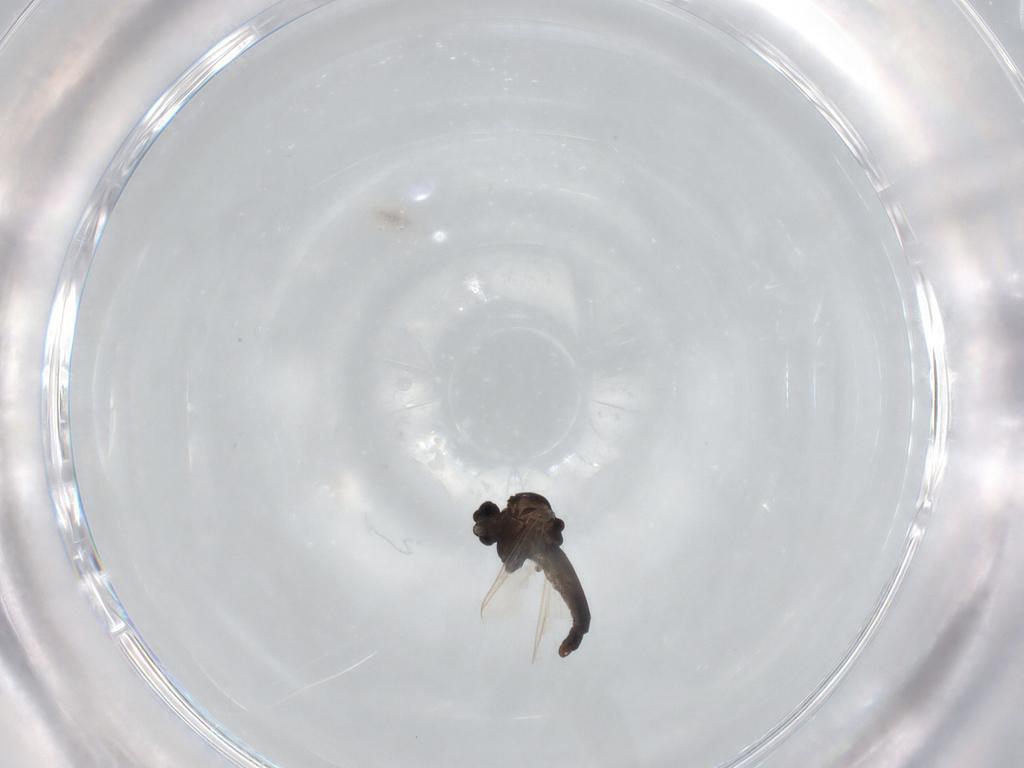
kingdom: Animalia
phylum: Arthropoda
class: Insecta
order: Diptera
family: Chironomidae
